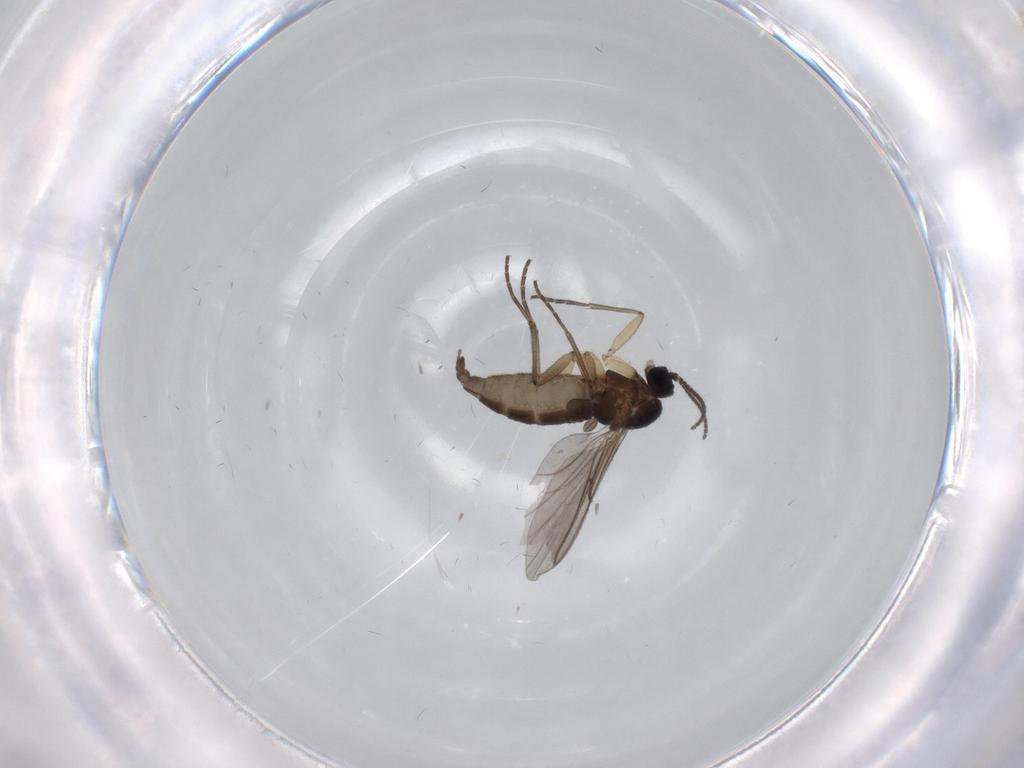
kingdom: Animalia
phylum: Arthropoda
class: Insecta
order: Diptera
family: Sciaridae
